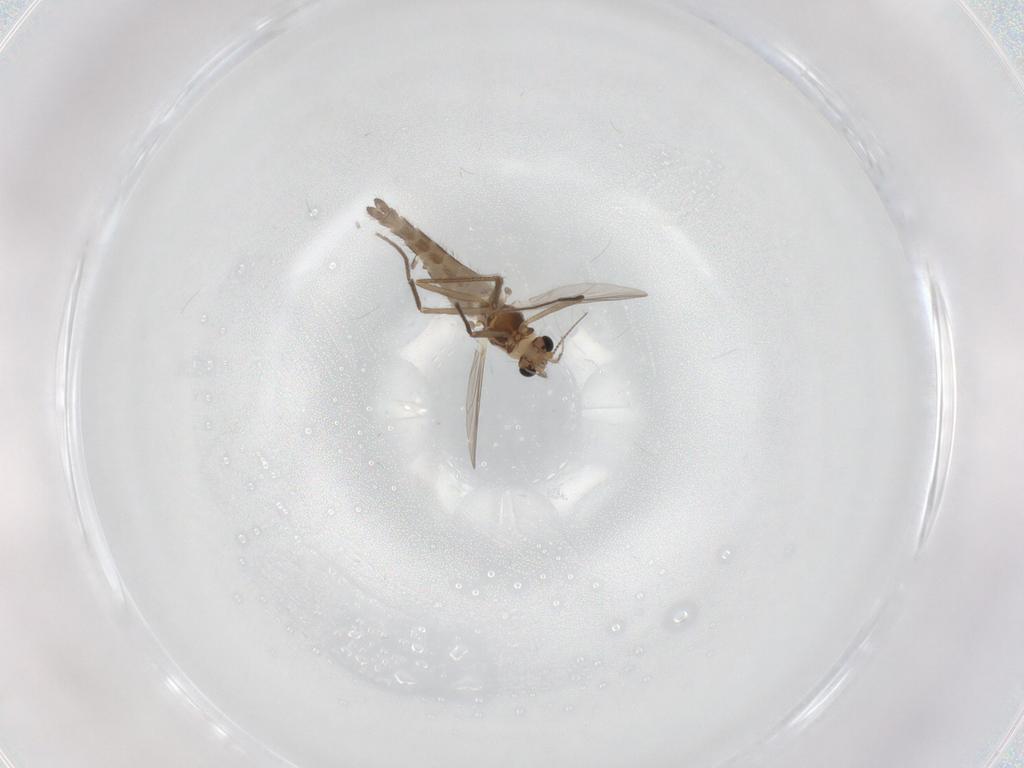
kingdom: Animalia
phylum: Arthropoda
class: Insecta
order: Diptera
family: Chironomidae
